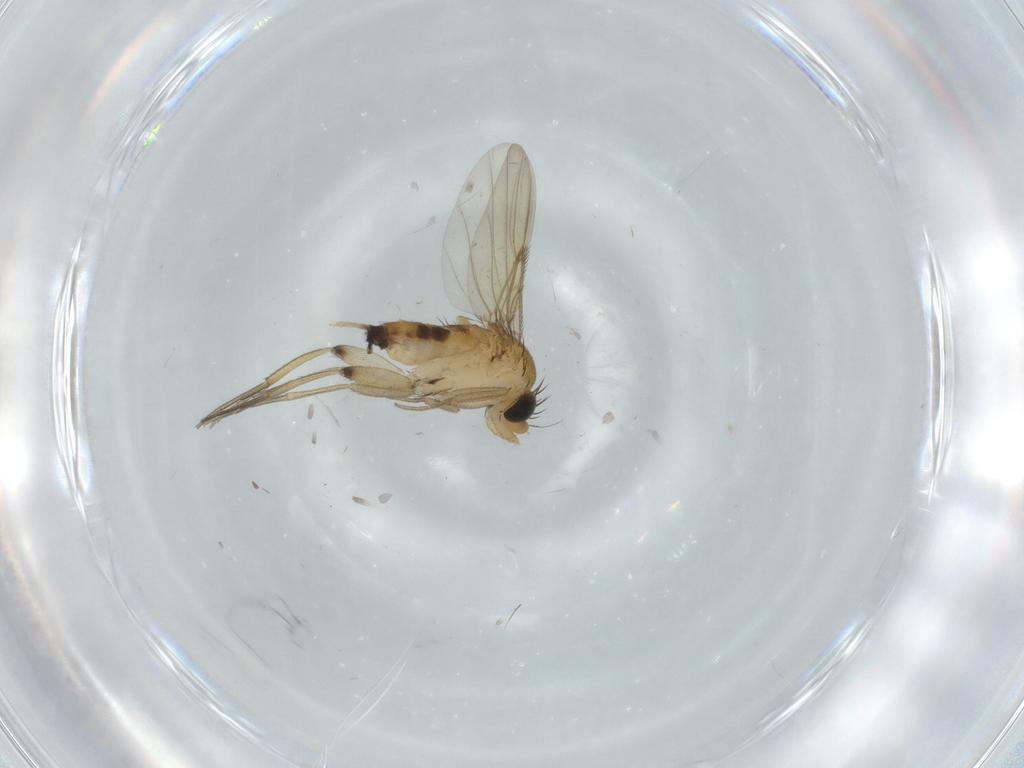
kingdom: Animalia
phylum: Arthropoda
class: Insecta
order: Diptera
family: Phoridae
